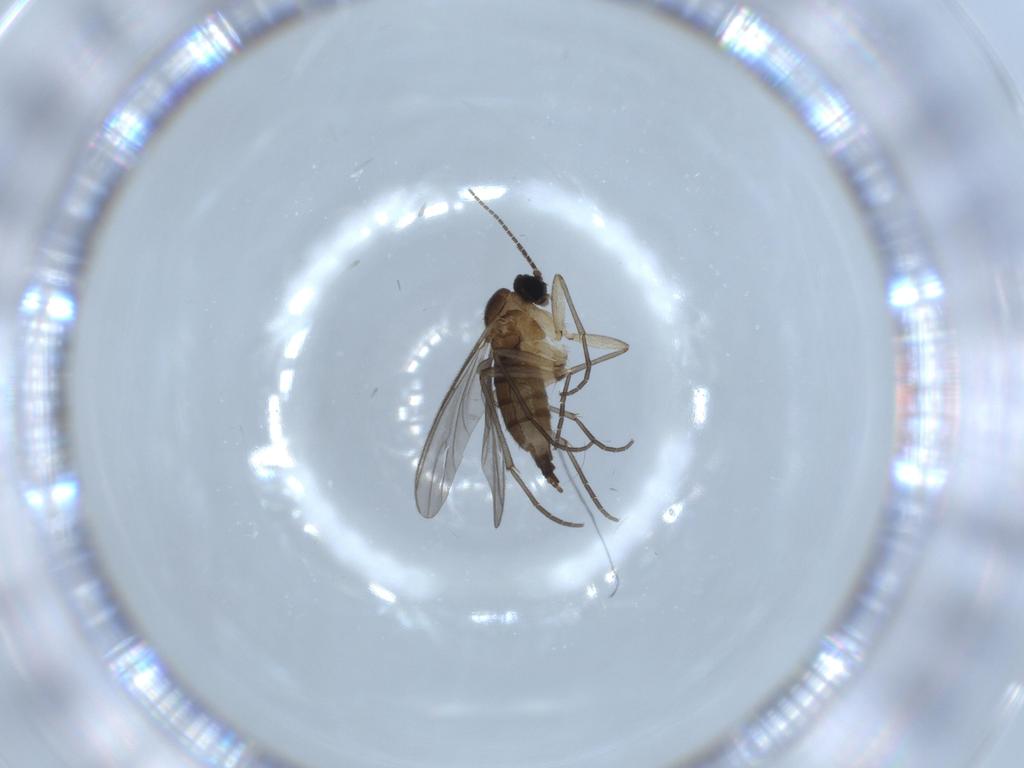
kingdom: Animalia
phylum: Arthropoda
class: Insecta
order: Diptera
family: Sciaridae
